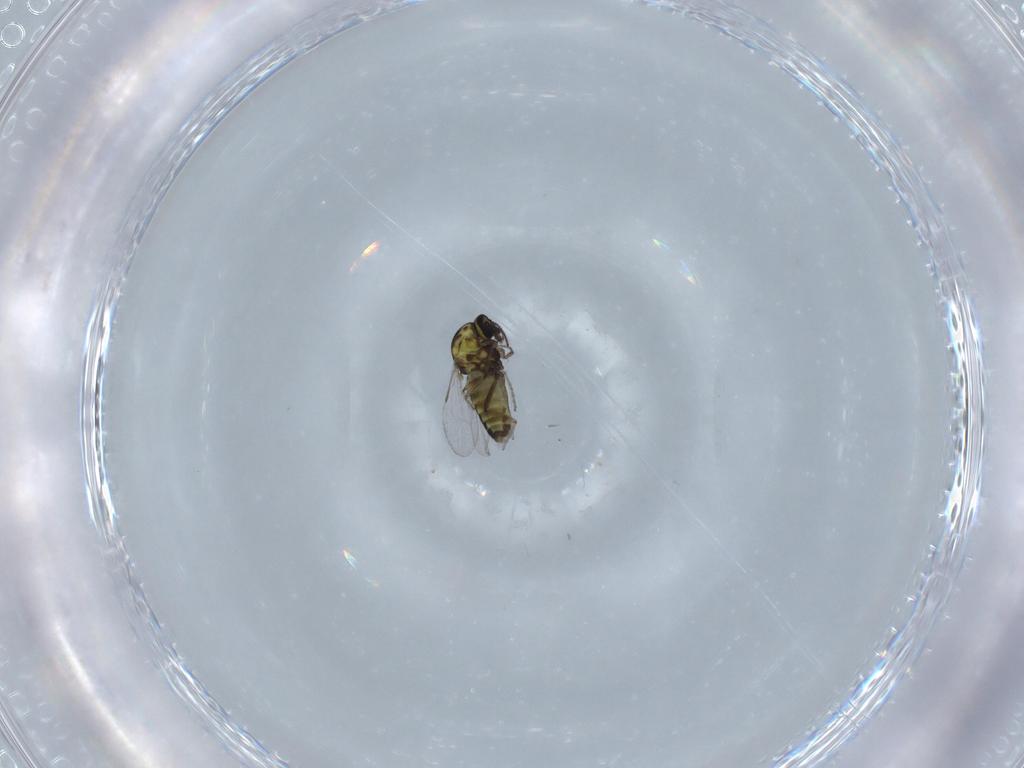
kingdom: Animalia
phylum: Arthropoda
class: Insecta
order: Diptera
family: Ceratopogonidae
